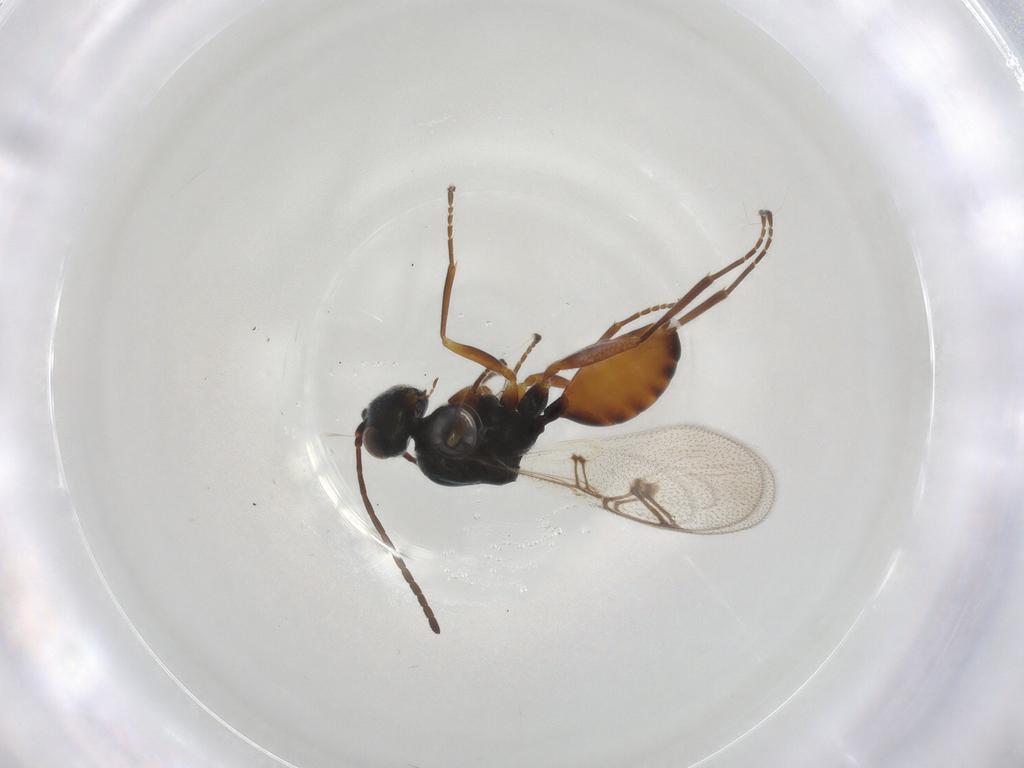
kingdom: Animalia
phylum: Arthropoda
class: Insecta
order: Hymenoptera
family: Figitidae
